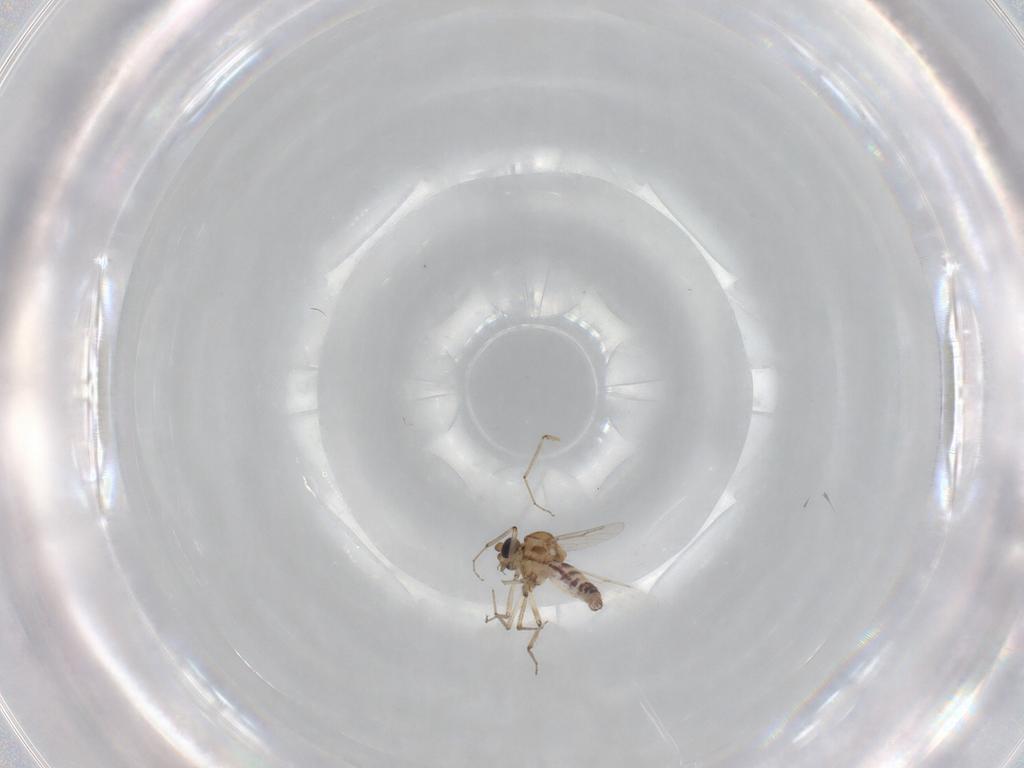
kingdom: Animalia
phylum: Arthropoda
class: Insecta
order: Diptera
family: Ceratopogonidae
